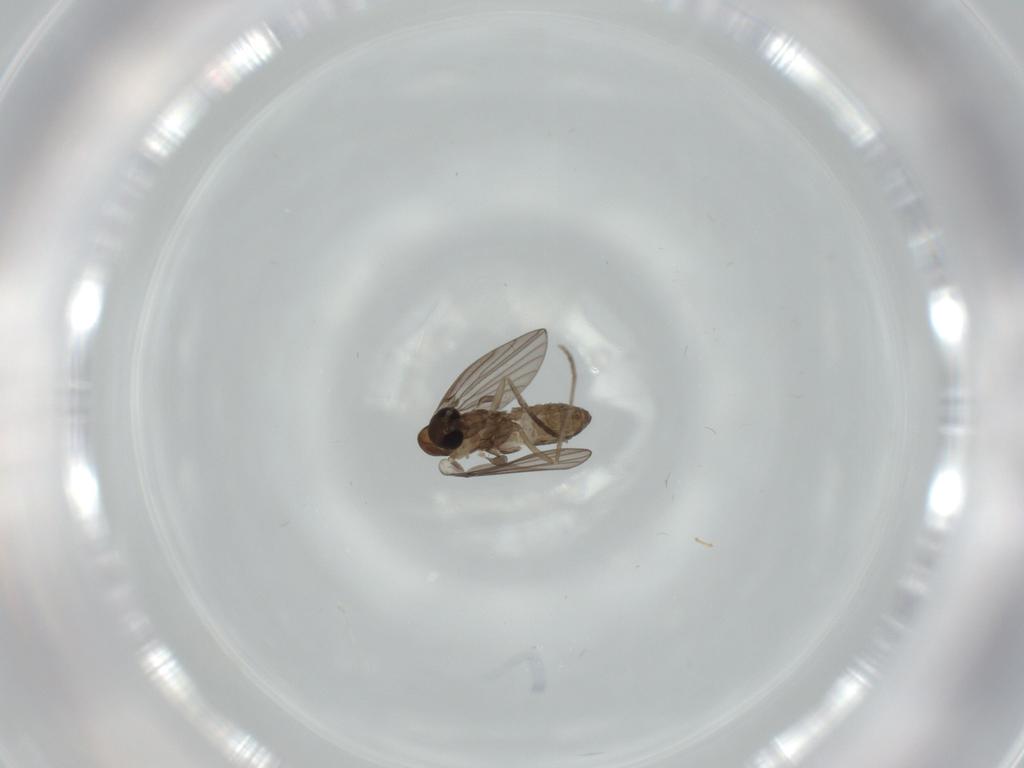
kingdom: Animalia
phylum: Arthropoda
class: Insecta
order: Diptera
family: Psychodidae
